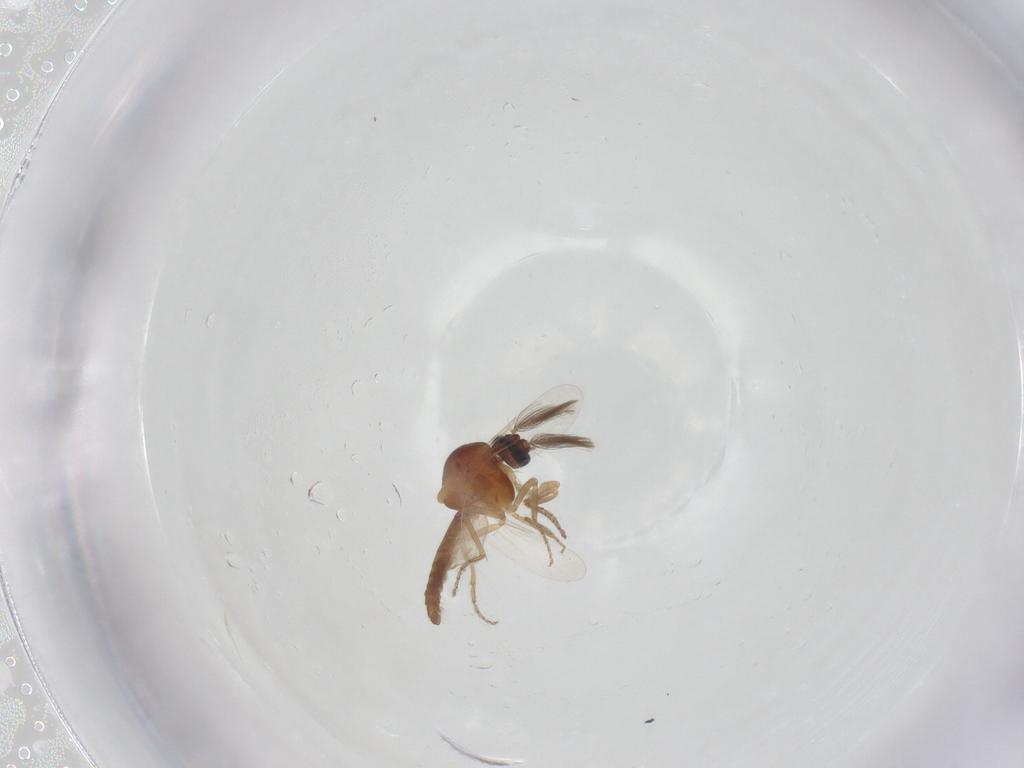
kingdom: Animalia
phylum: Arthropoda
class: Insecta
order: Diptera
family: Ceratopogonidae
